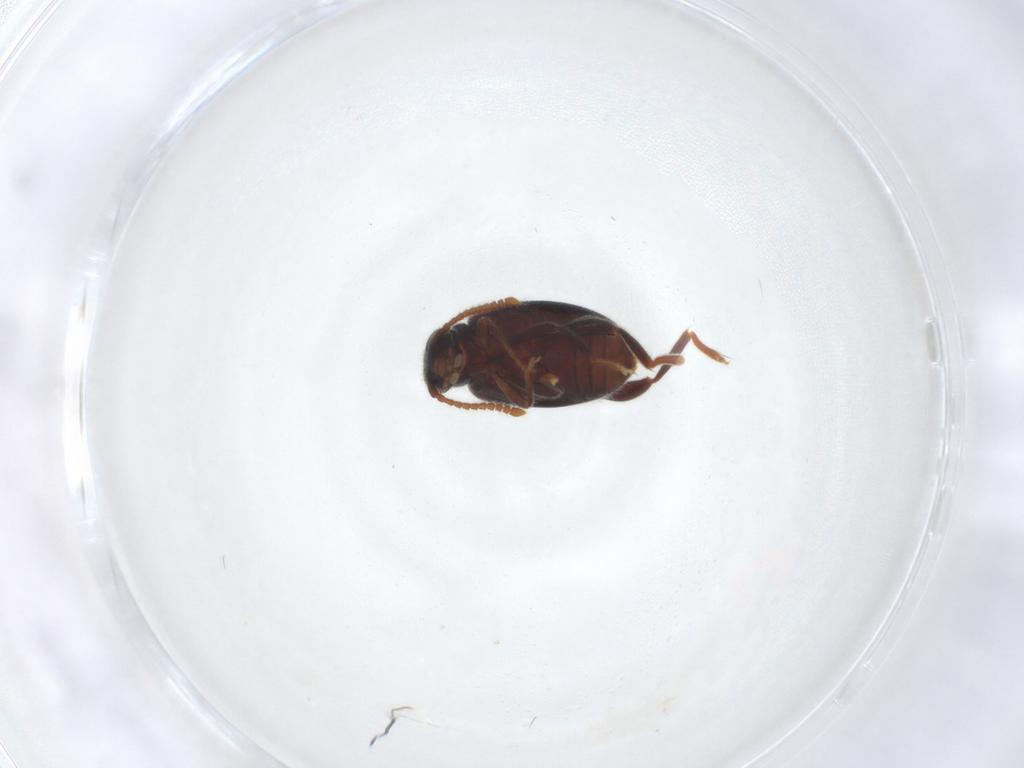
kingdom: Animalia
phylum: Arthropoda
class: Insecta
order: Coleoptera
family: Aderidae
